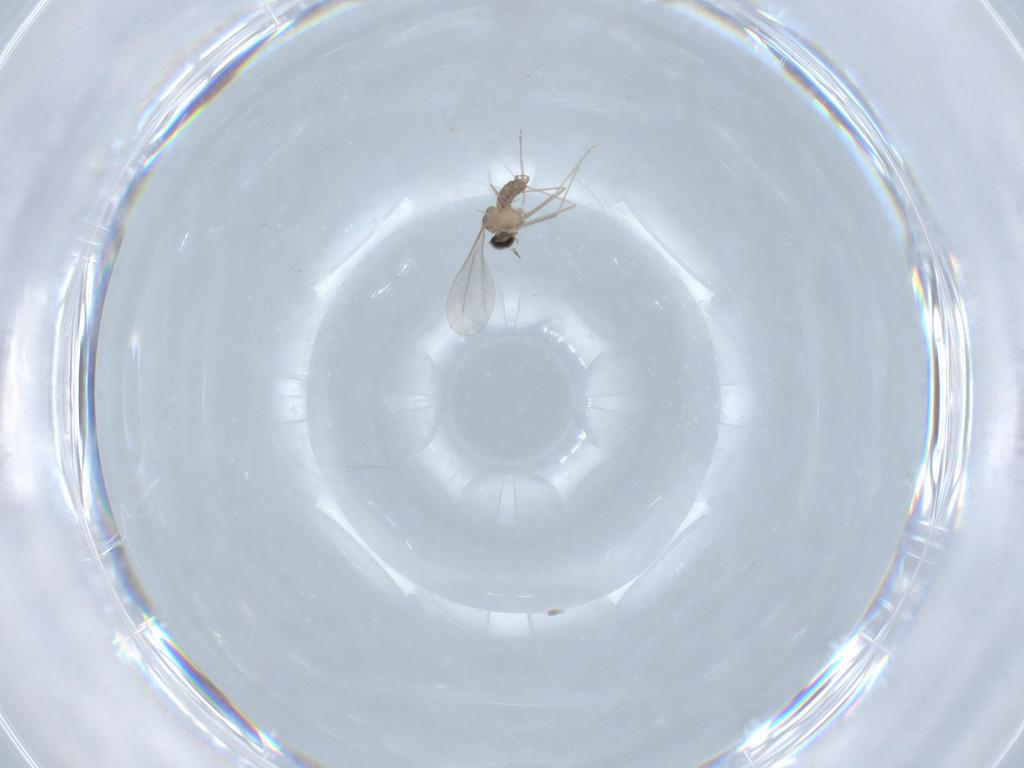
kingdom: Animalia
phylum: Arthropoda
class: Insecta
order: Diptera
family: Cecidomyiidae
